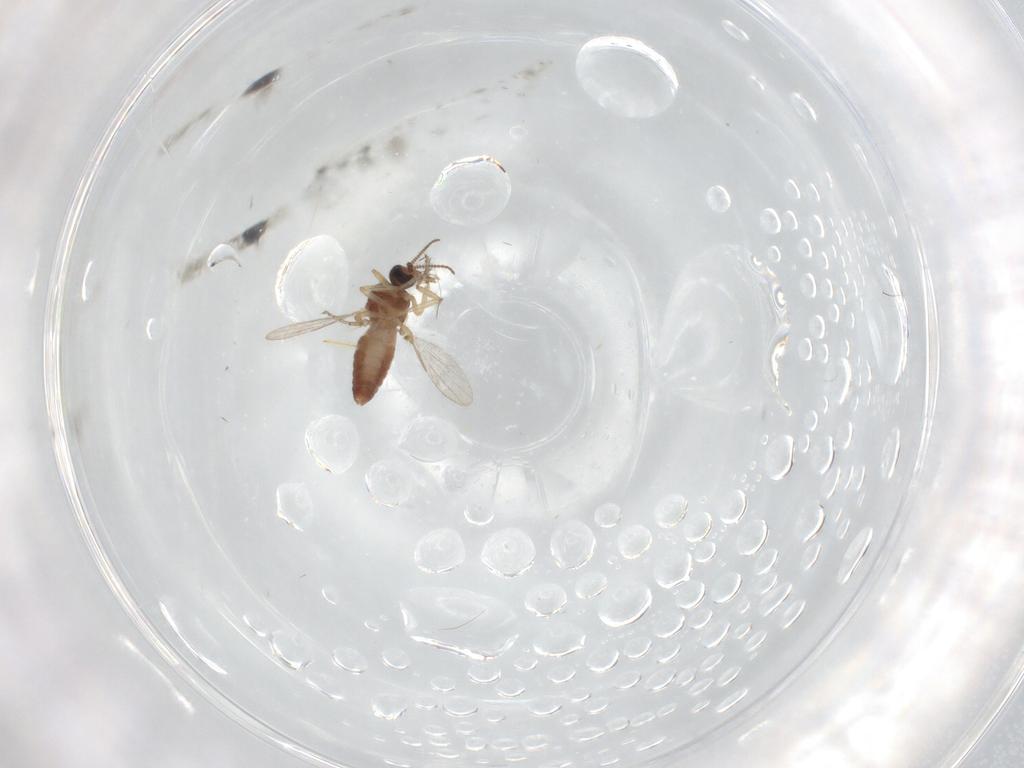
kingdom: Animalia
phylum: Arthropoda
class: Insecta
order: Diptera
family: Ceratopogonidae
